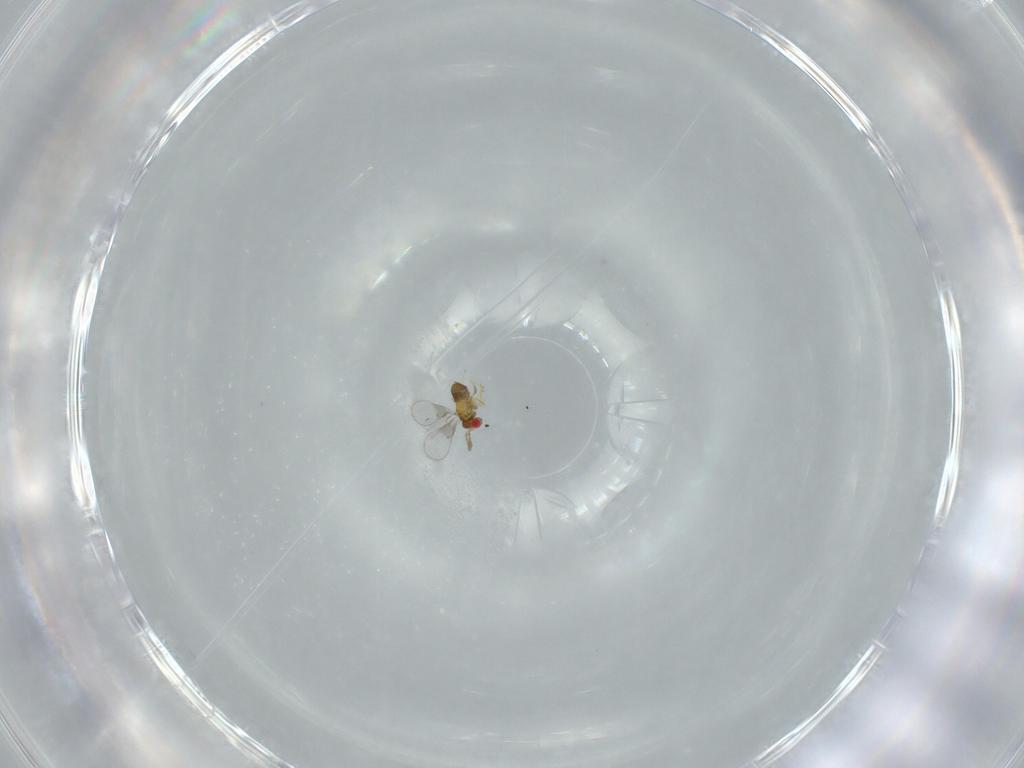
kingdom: Animalia
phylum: Arthropoda
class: Insecta
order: Hymenoptera
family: Trichogrammatidae
